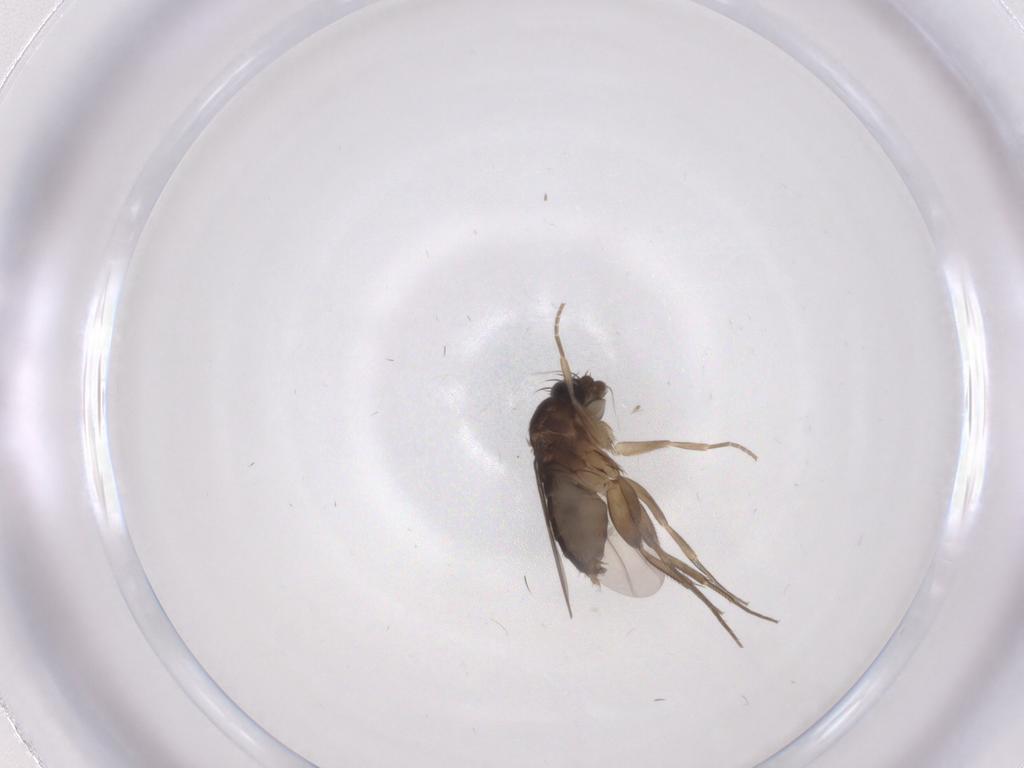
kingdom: Animalia
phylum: Arthropoda
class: Insecta
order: Diptera
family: Phoridae
